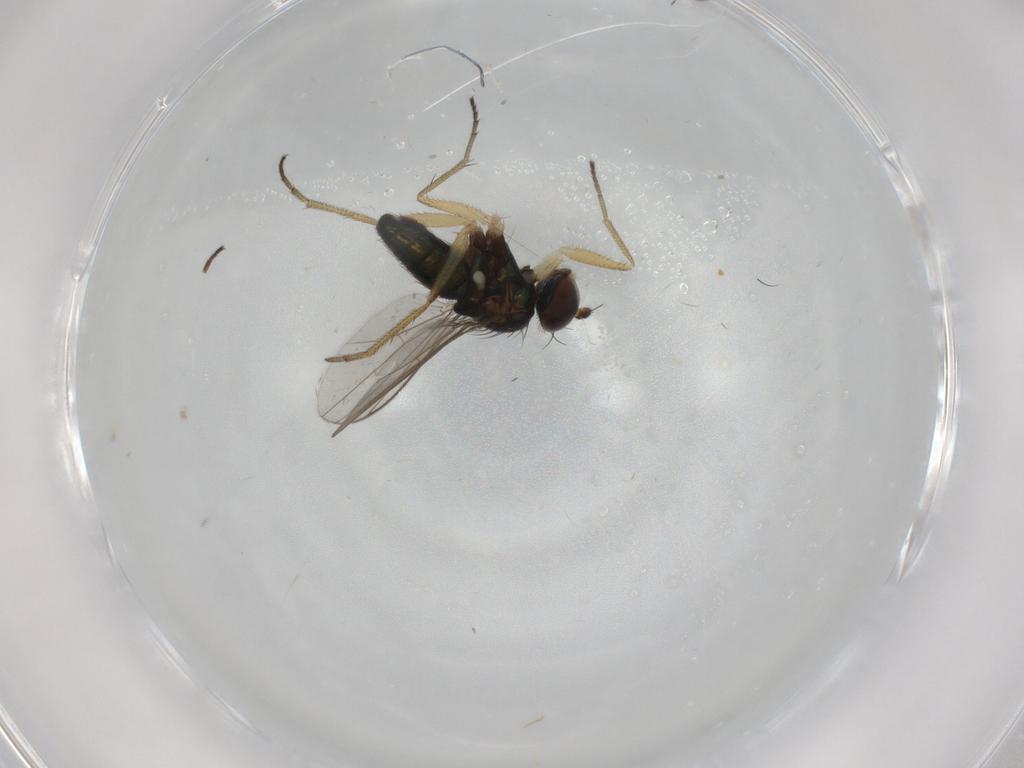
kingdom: Animalia
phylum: Arthropoda
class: Insecta
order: Diptera
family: Dolichopodidae
